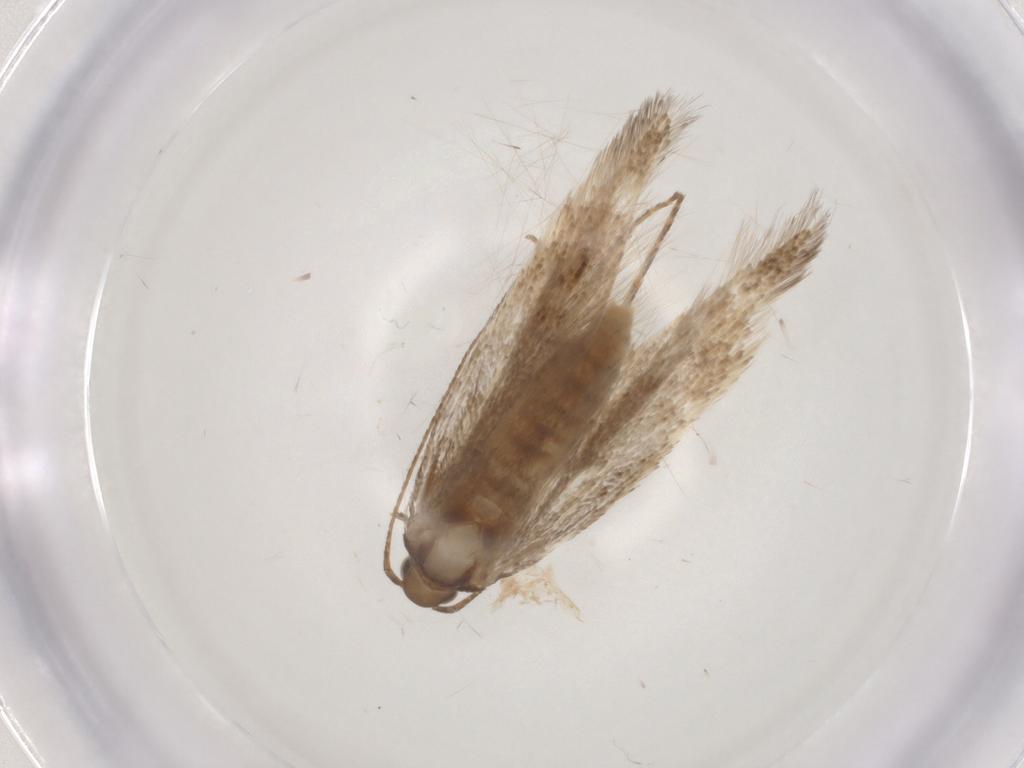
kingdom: Animalia
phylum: Arthropoda
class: Insecta
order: Lepidoptera
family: Gelechiidae
